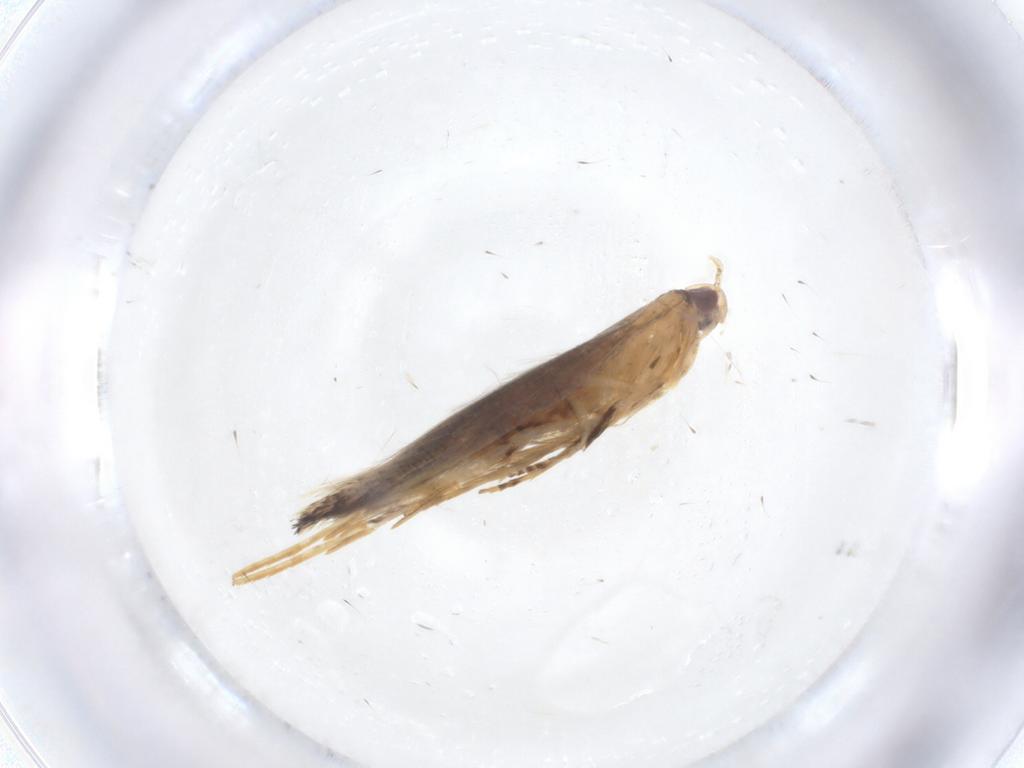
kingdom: Animalia
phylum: Arthropoda
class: Insecta
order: Lepidoptera
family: Cosmopterigidae
